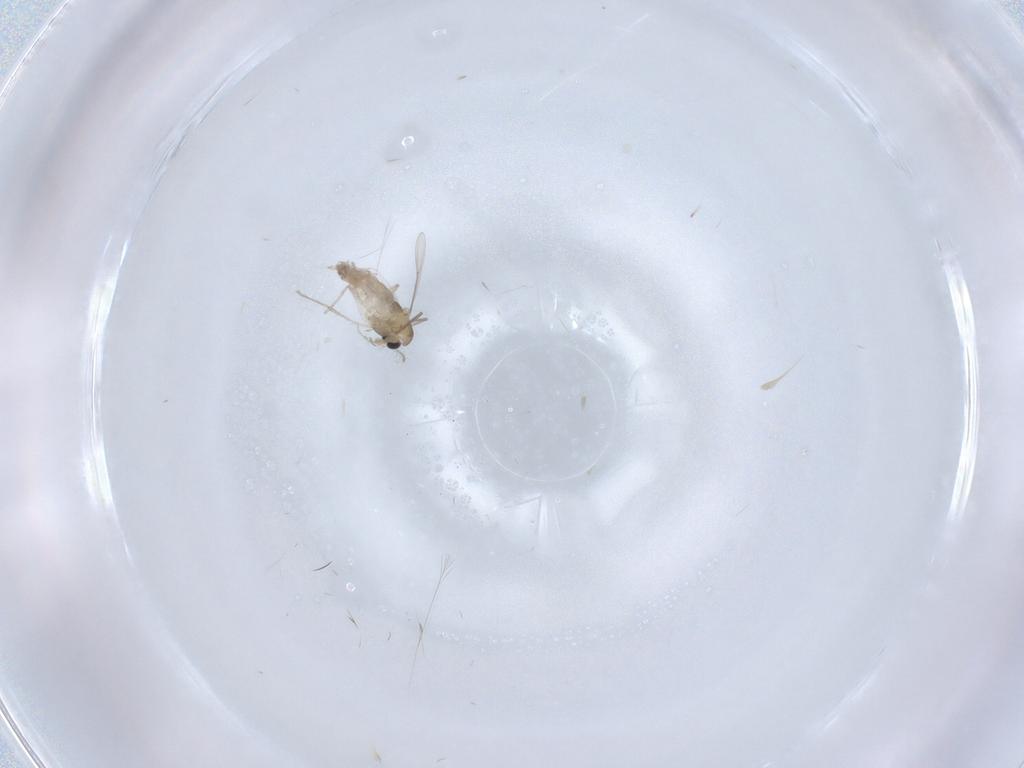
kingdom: Animalia
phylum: Arthropoda
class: Insecta
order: Diptera
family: Chironomidae
